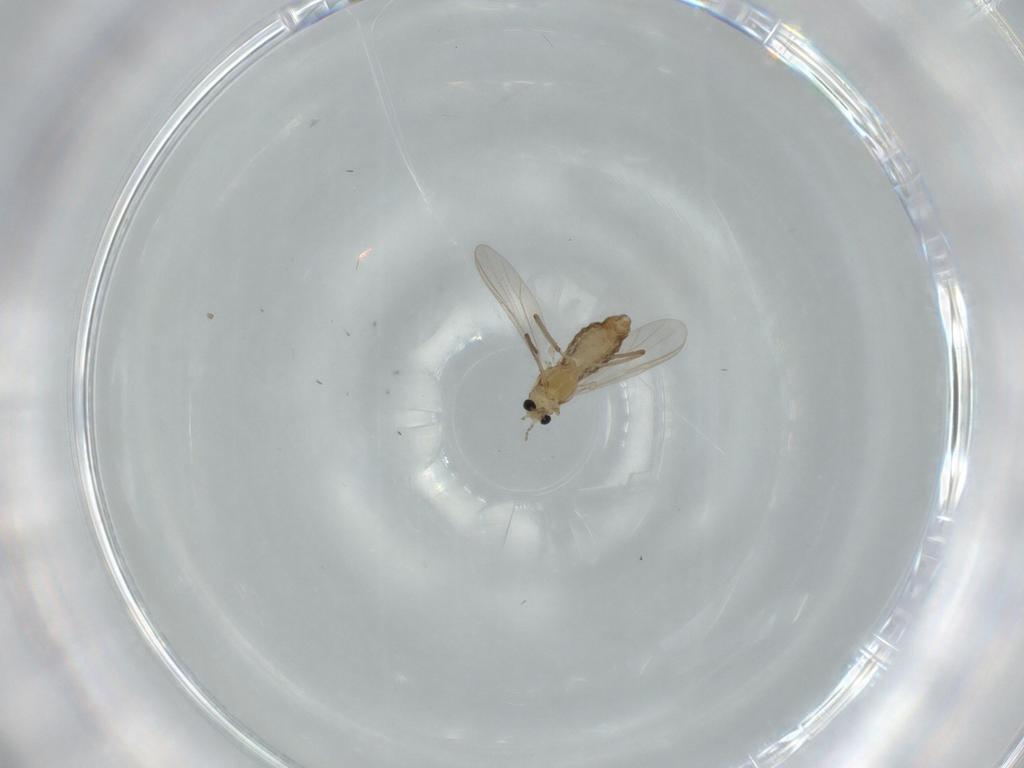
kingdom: Animalia
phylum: Arthropoda
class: Insecta
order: Diptera
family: Chironomidae
